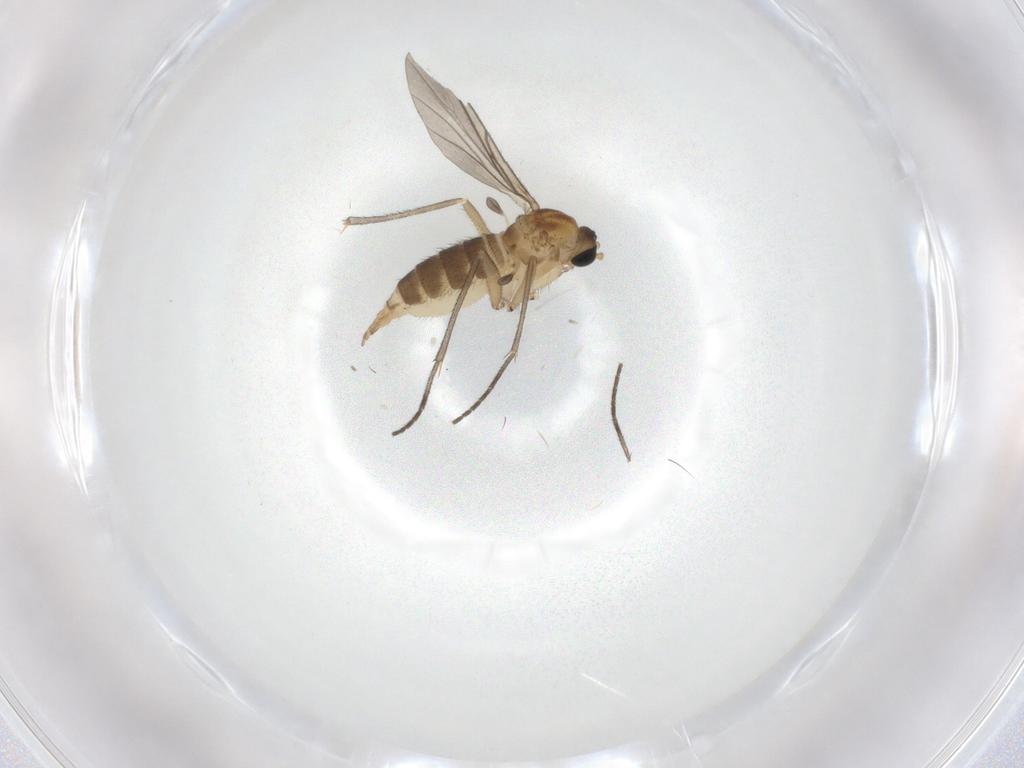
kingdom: Animalia
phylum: Arthropoda
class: Insecta
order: Diptera
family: Sciaridae
